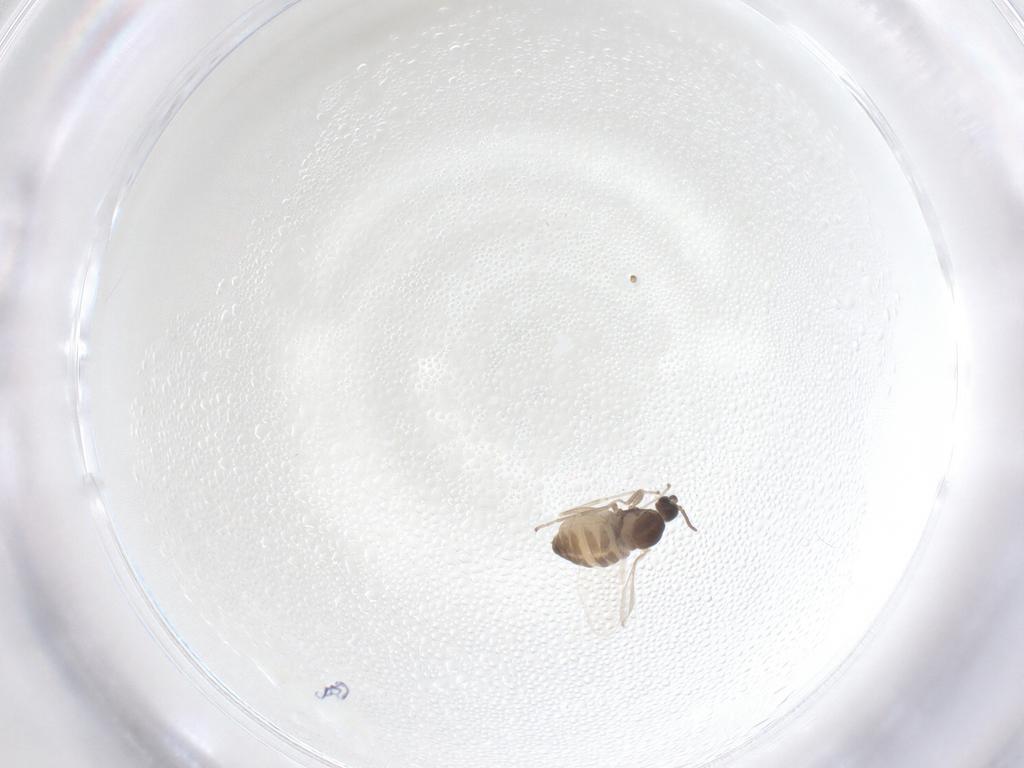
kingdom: Animalia
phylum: Arthropoda
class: Insecta
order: Diptera
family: Cecidomyiidae
